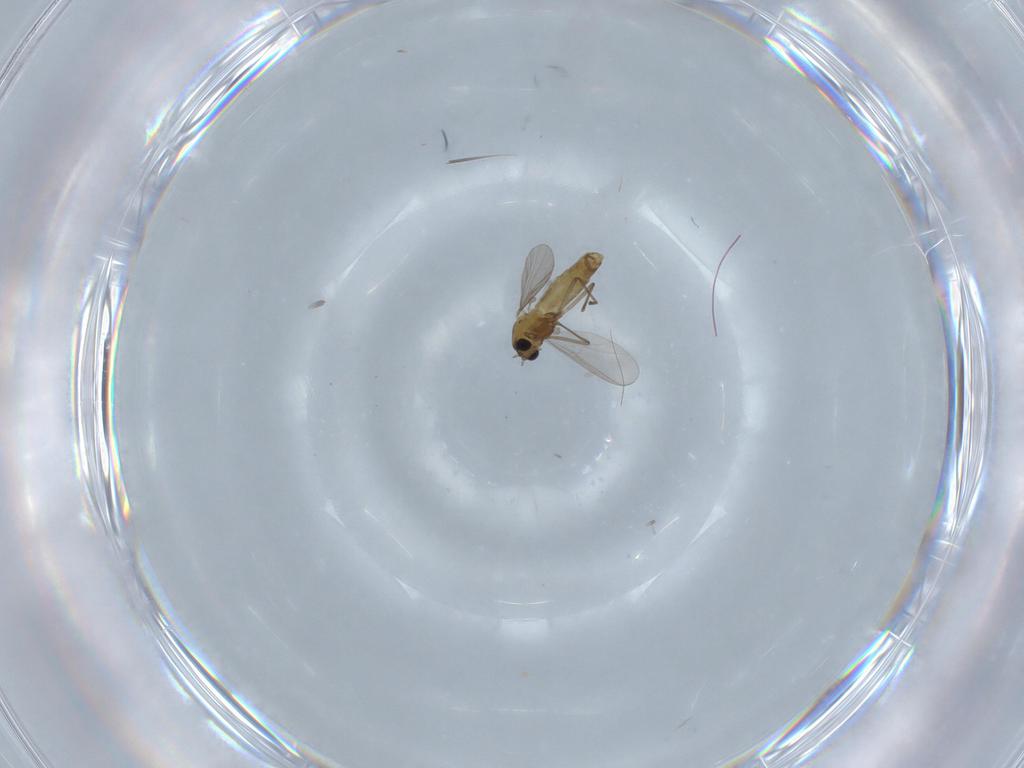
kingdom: Animalia
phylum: Arthropoda
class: Insecta
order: Diptera
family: Chironomidae
